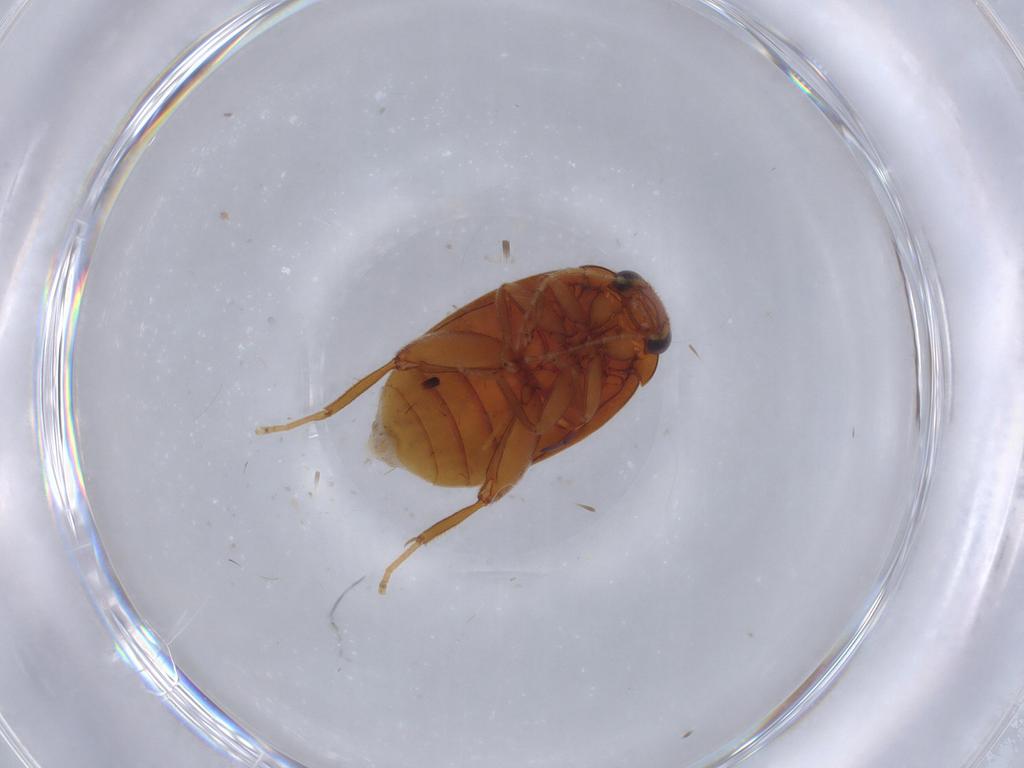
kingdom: Animalia
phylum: Arthropoda
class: Insecta
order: Coleoptera
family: Scirtidae
